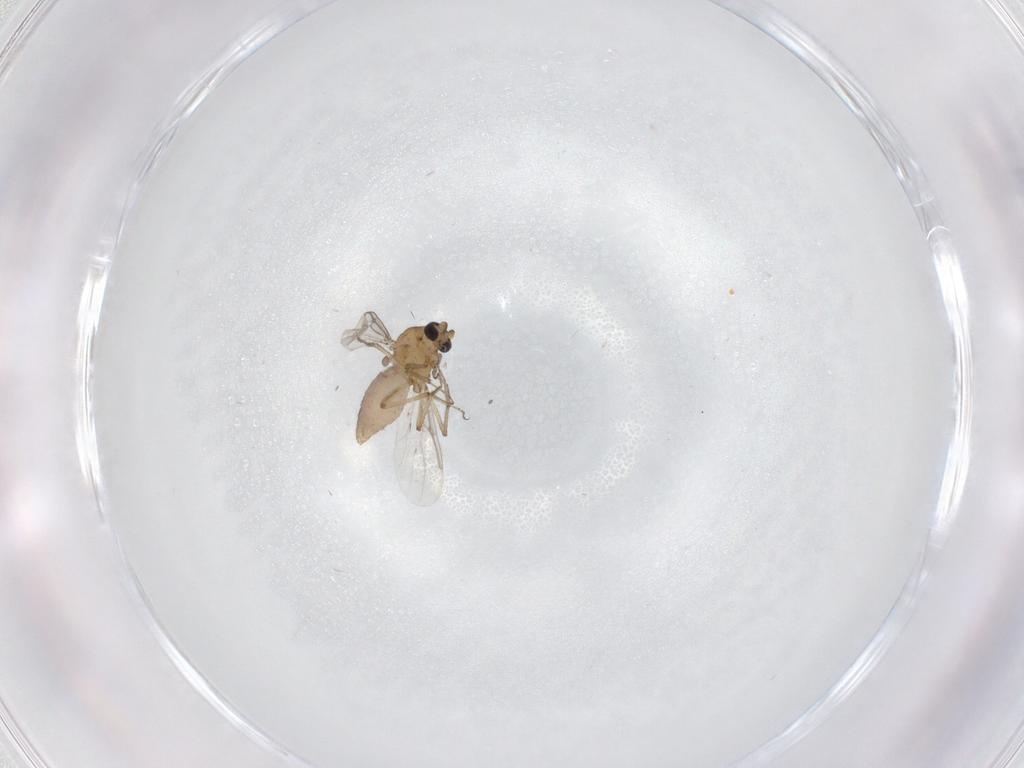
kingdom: Animalia
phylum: Arthropoda
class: Insecta
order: Diptera
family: Ceratopogonidae
